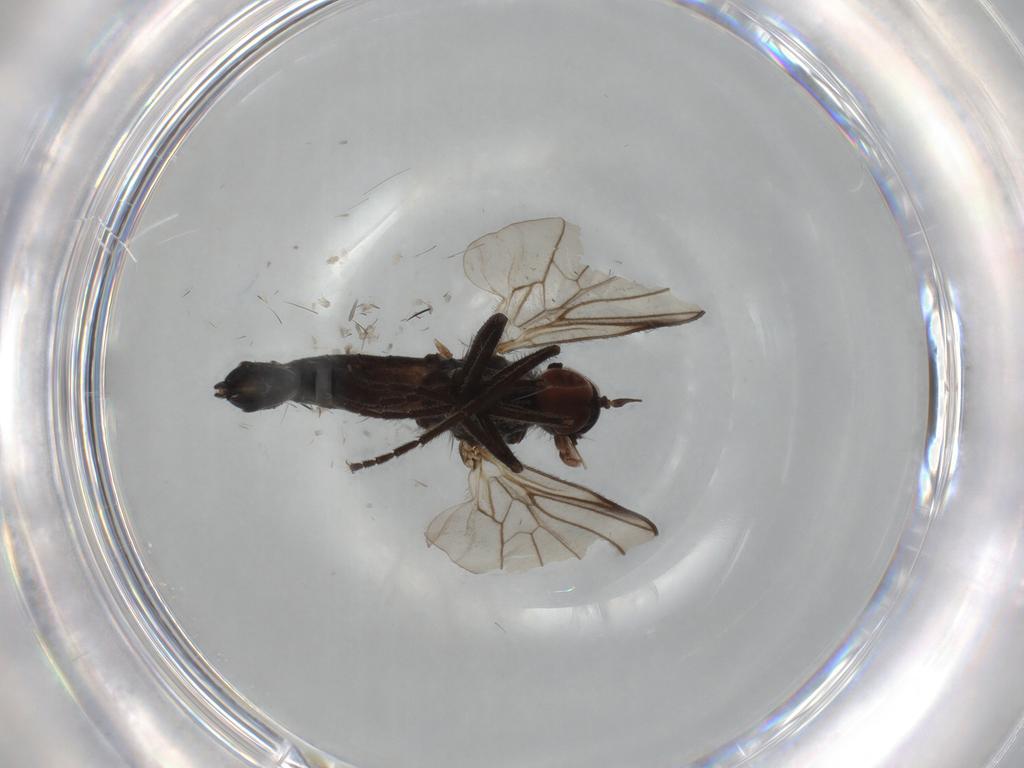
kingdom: Animalia
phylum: Arthropoda
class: Insecta
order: Diptera
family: Empididae
